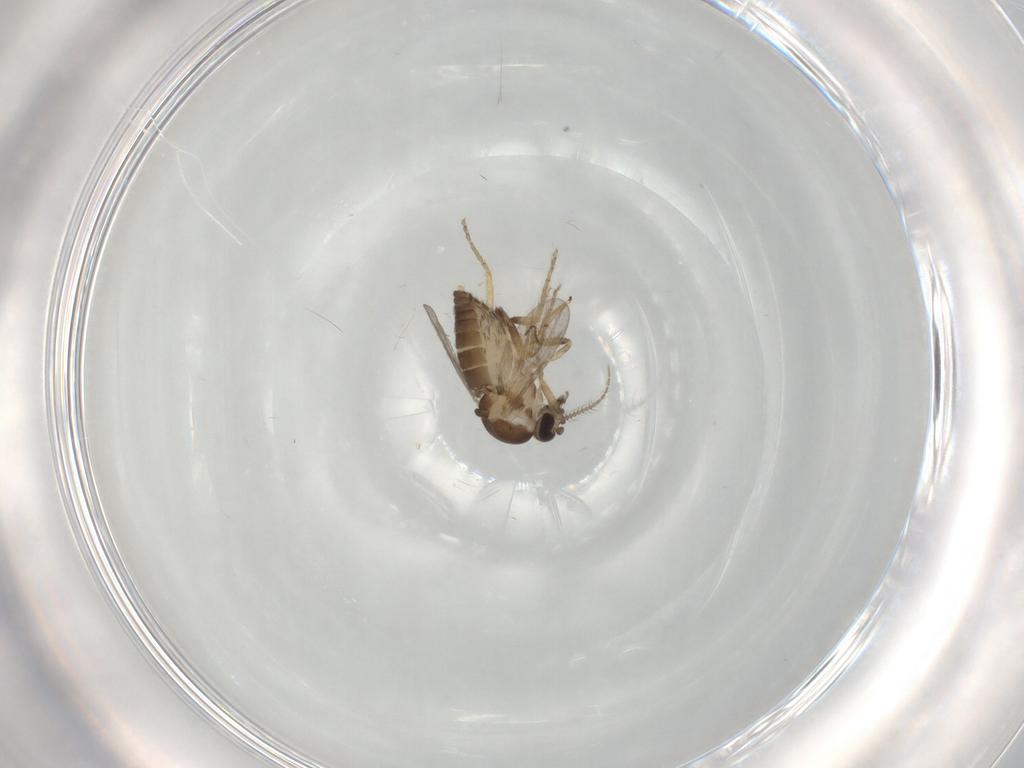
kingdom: Animalia
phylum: Arthropoda
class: Insecta
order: Diptera
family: Ceratopogonidae
